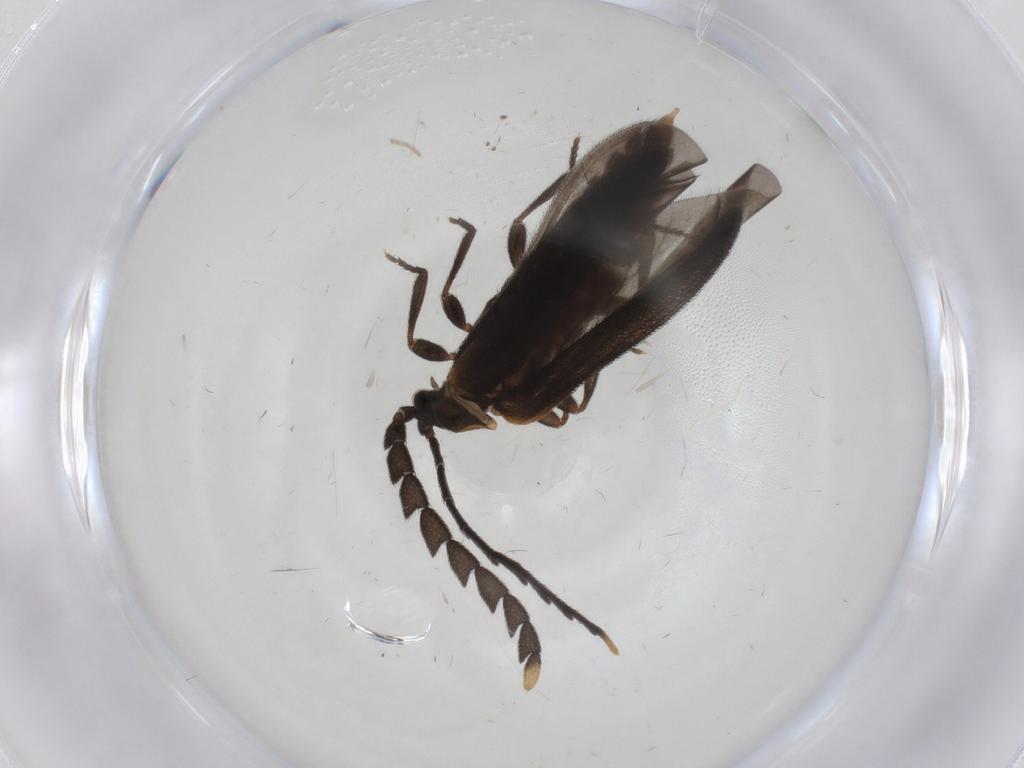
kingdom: Animalia
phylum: Arthropoda
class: Insecta
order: Coleoptera
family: Lycidae
